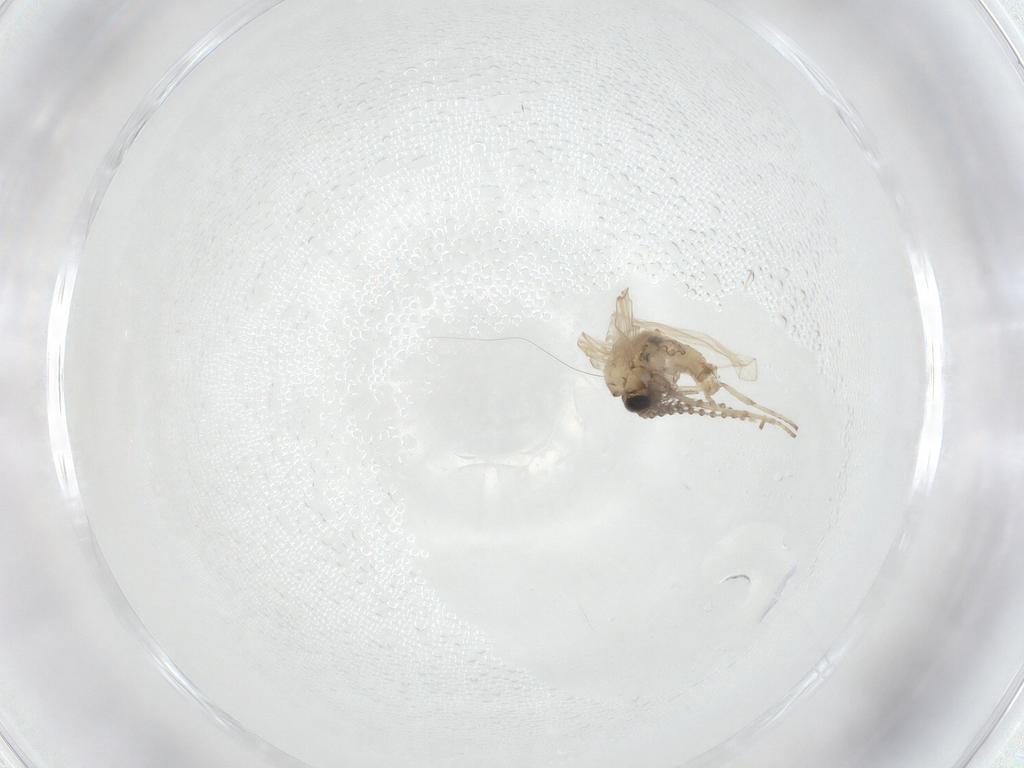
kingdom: Animalia
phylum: Arthropoda
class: Insecta
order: Diptera
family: Psychodidae
